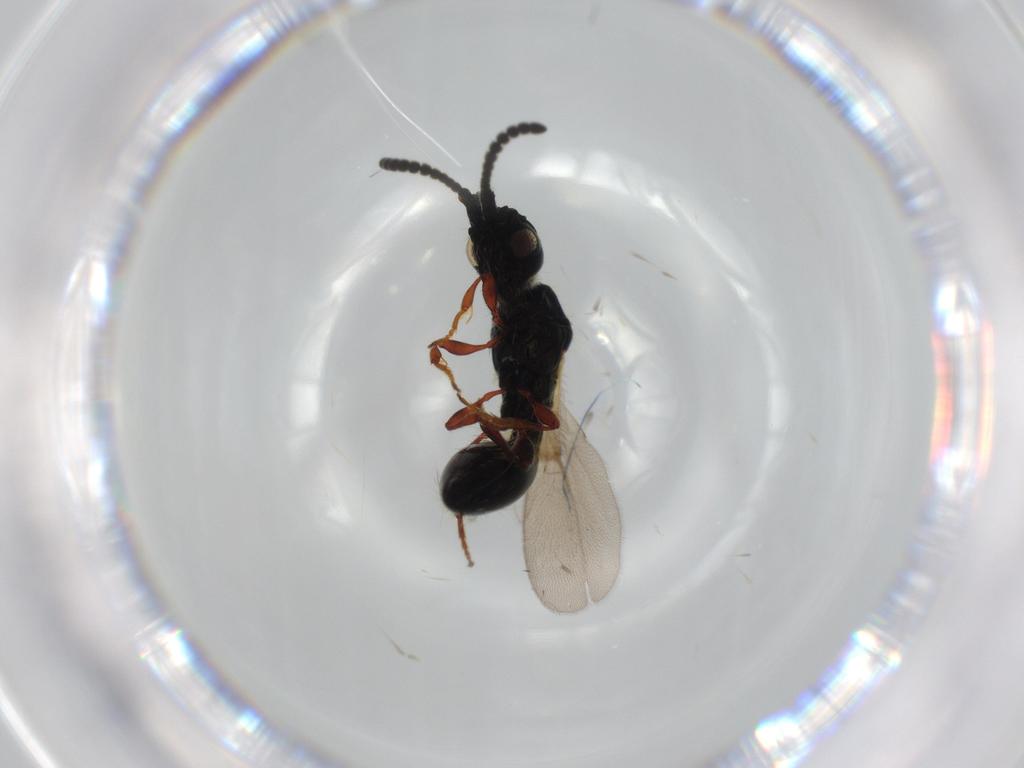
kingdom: Animalia
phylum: Arthropoda
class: Insecta
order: Hymenoptera
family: Diapriidae
